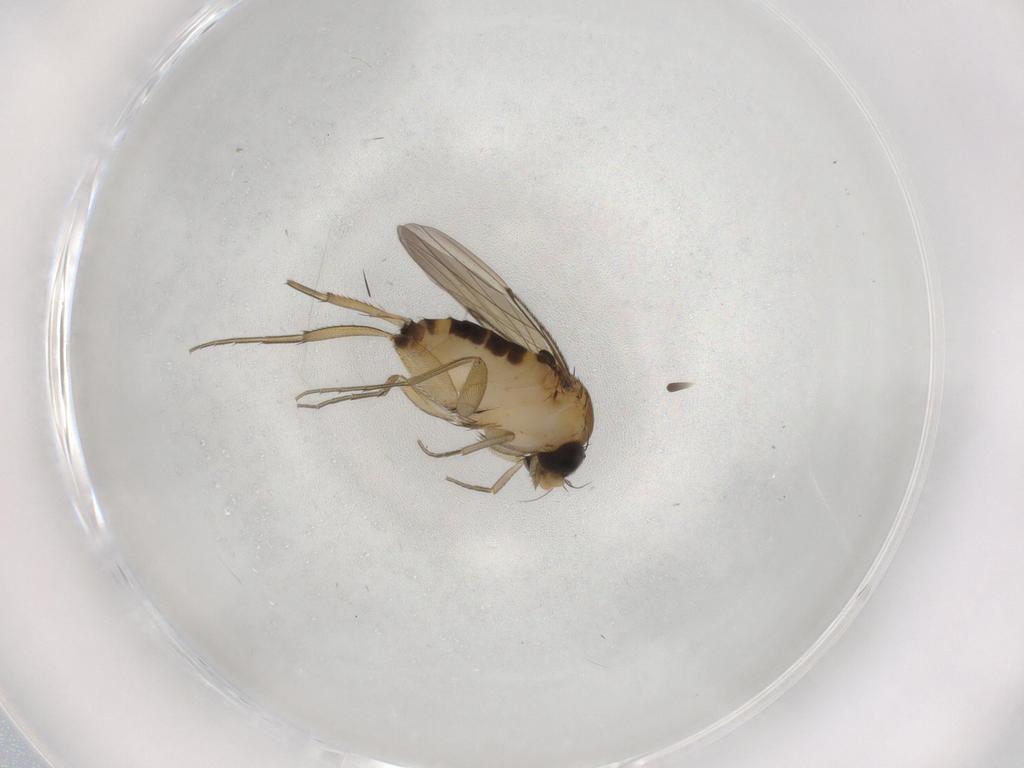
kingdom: Animalia
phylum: Arthropoda
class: Insecta
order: Diptera
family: Phoridae
